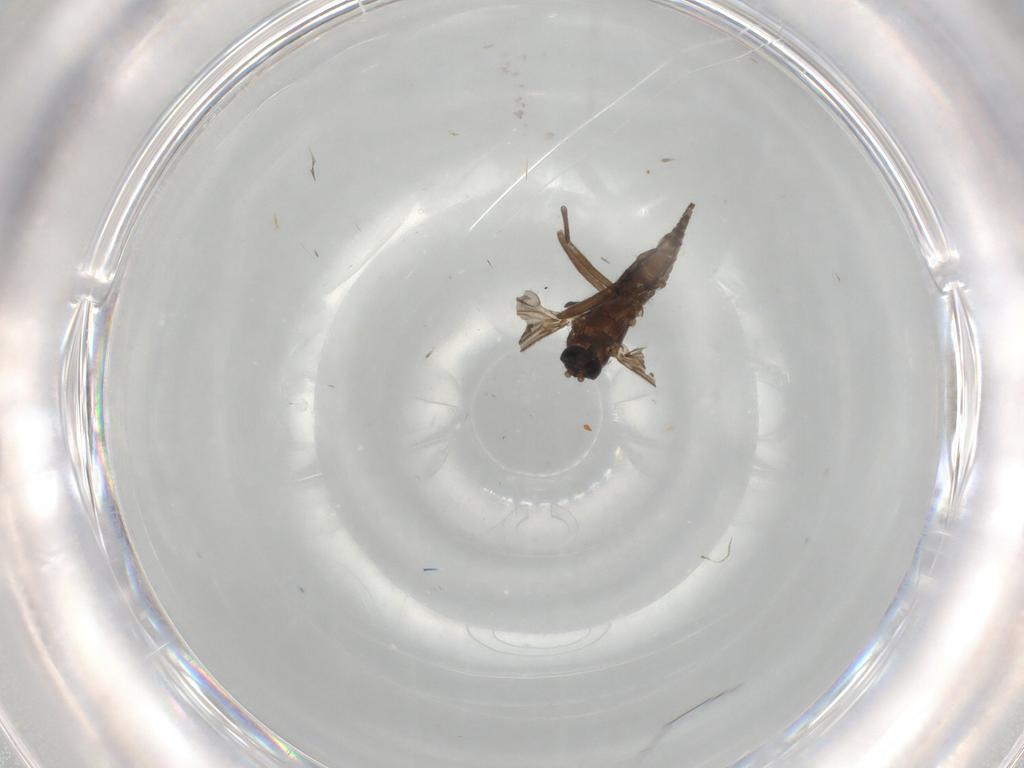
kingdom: Animalia
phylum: Arthropoda
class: Insecta
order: Diptera
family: Sciaridae
